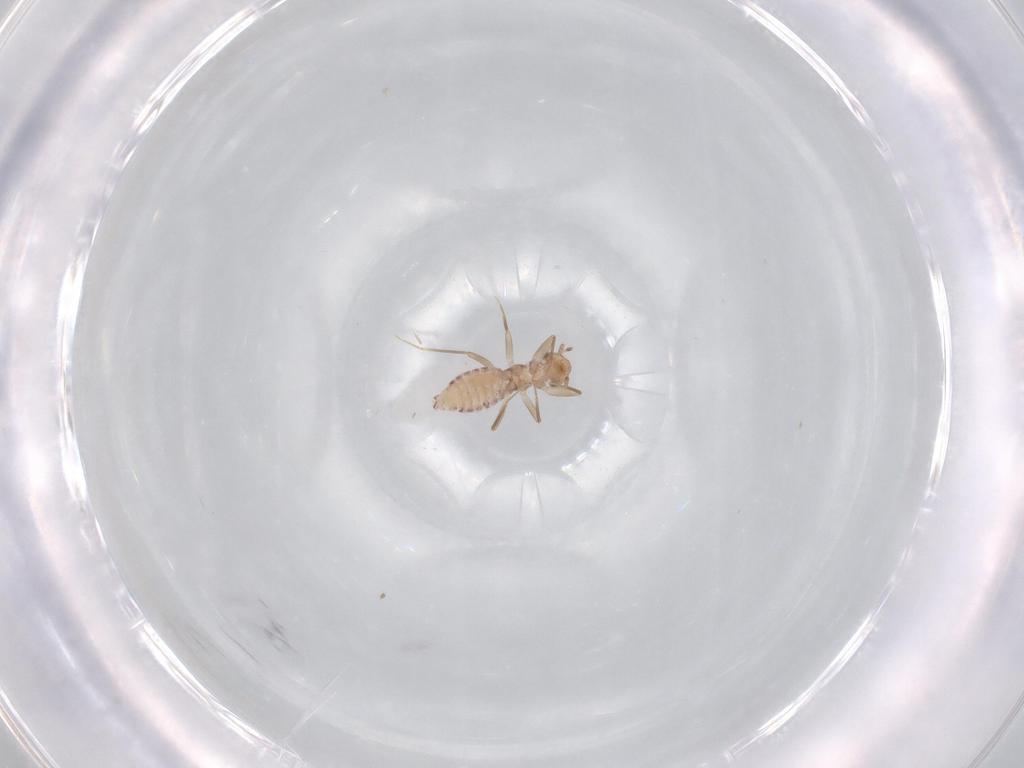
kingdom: Animalia
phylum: Arthropoda
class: Insecta
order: Psocodea
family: Lepidopsocidae
